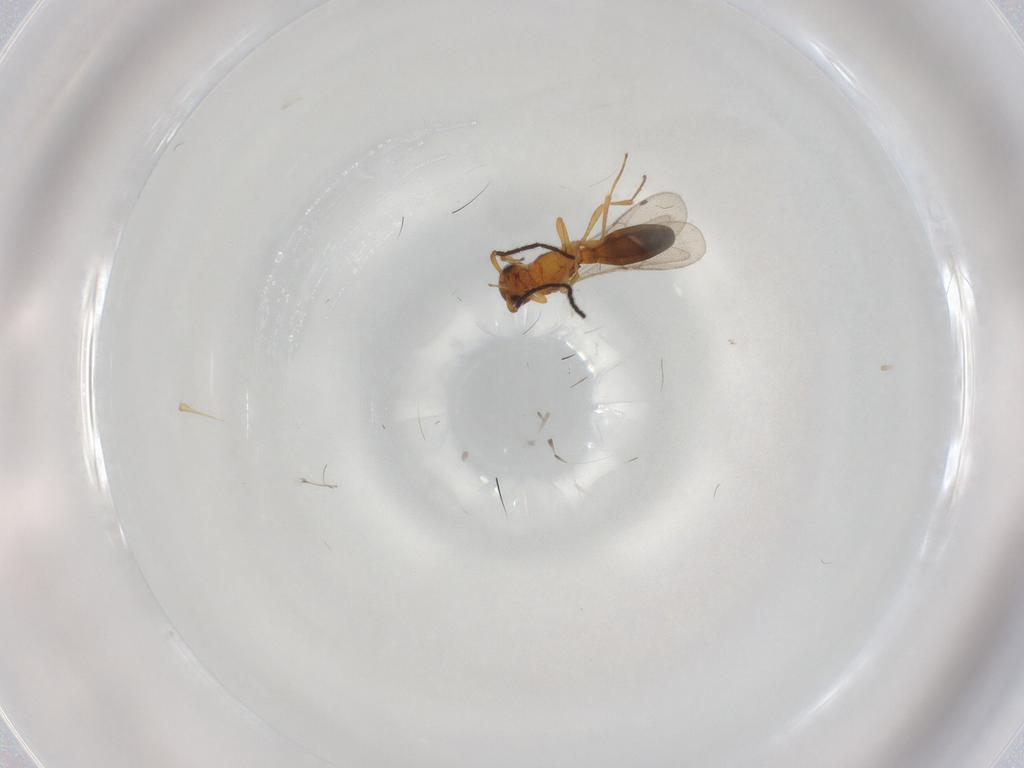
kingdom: Animalia
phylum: Arthropoda
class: Insecta
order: Hymenoptera
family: Scelionidae
